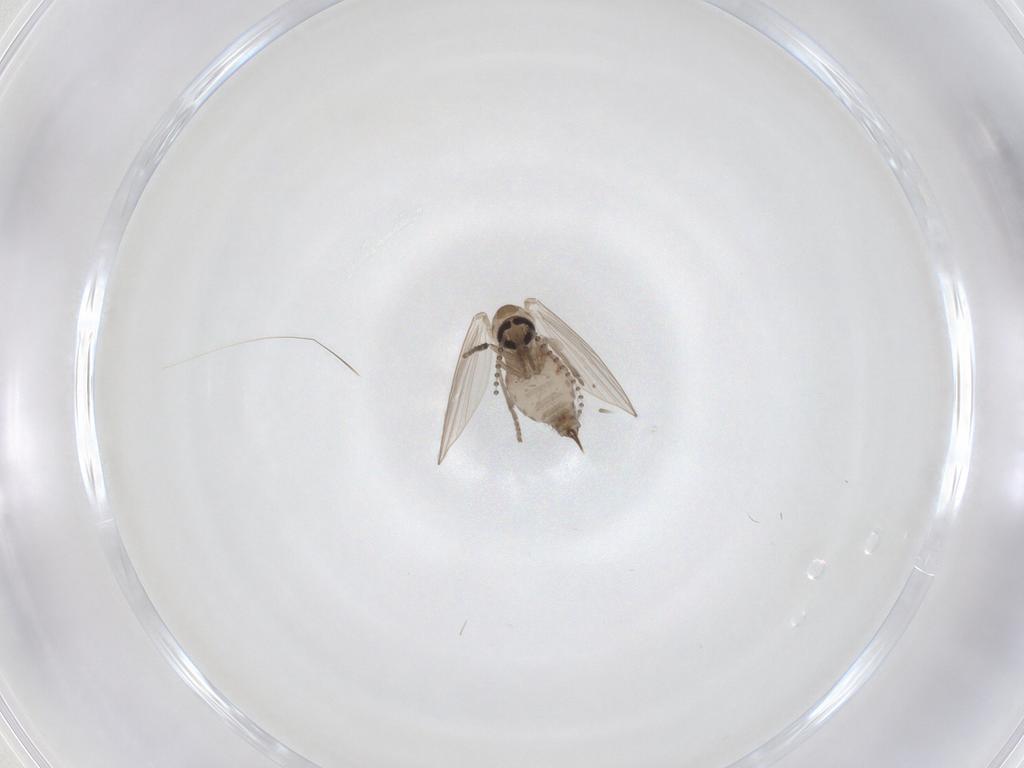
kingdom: Animalia
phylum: Arthropoda
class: Insecta
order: Diptera
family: Psychodidae
